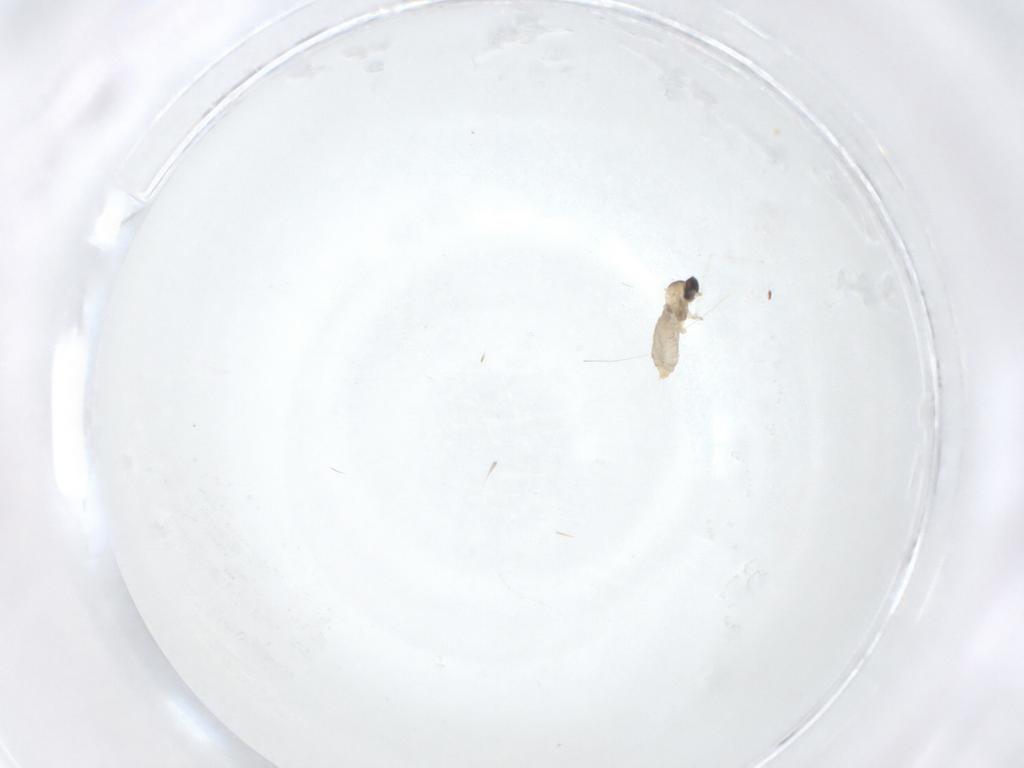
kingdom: Animalia
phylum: Arthropoda
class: Insecta
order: Diptera
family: Cecidomyiidae
